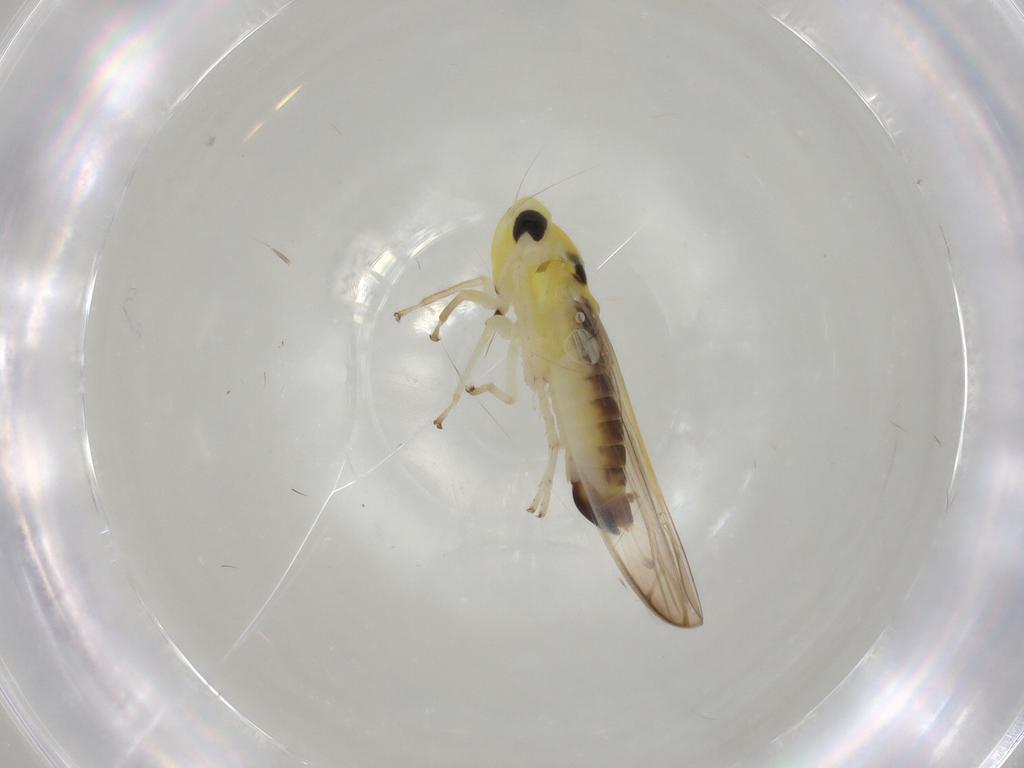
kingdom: Animalia
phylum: Arthropoda
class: Insecta
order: Hemiptera
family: Cicadellidae
